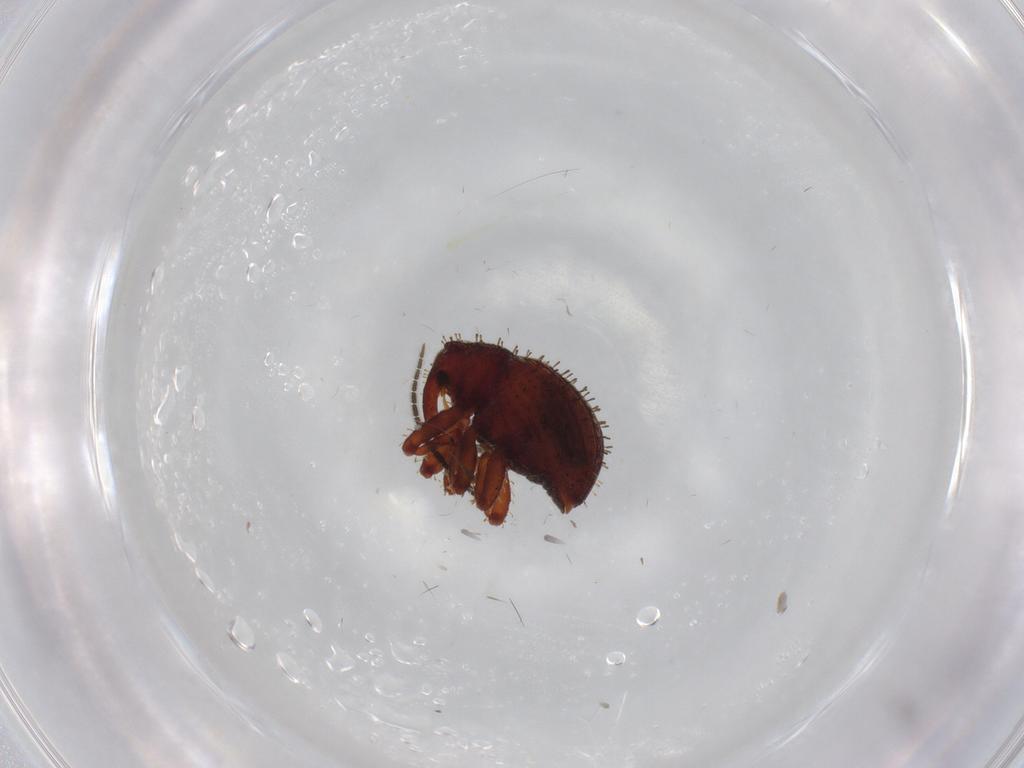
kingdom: Animalia
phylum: Arthropoda
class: Insecta
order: Coleoptera
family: Curculionidae
